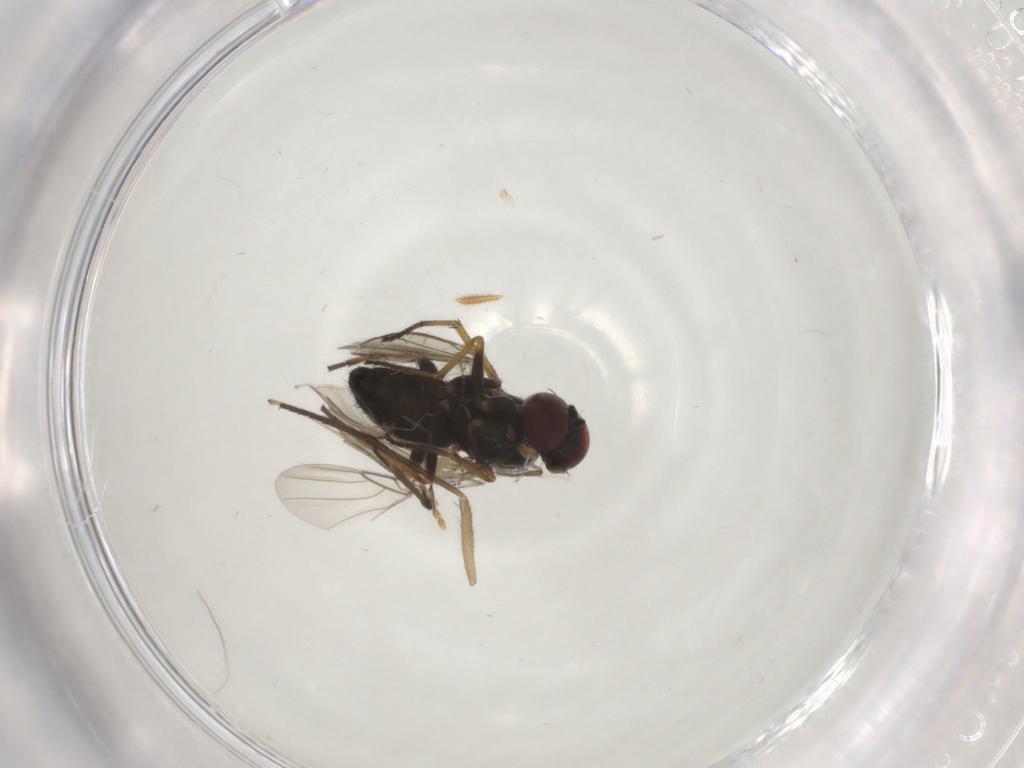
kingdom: Animalia
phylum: Arthropoda
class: Insecta
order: Diptera
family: Dolichopodidae
